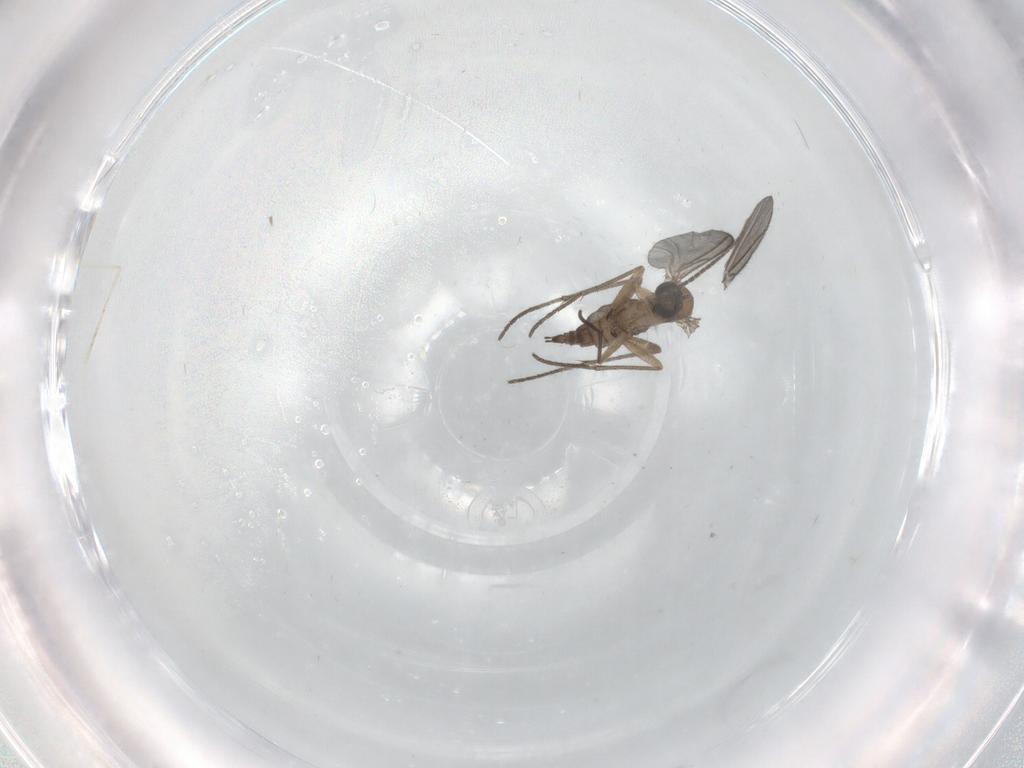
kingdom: Animalia
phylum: Arthropoda
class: Insecta
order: Diptera
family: Sciaridae
